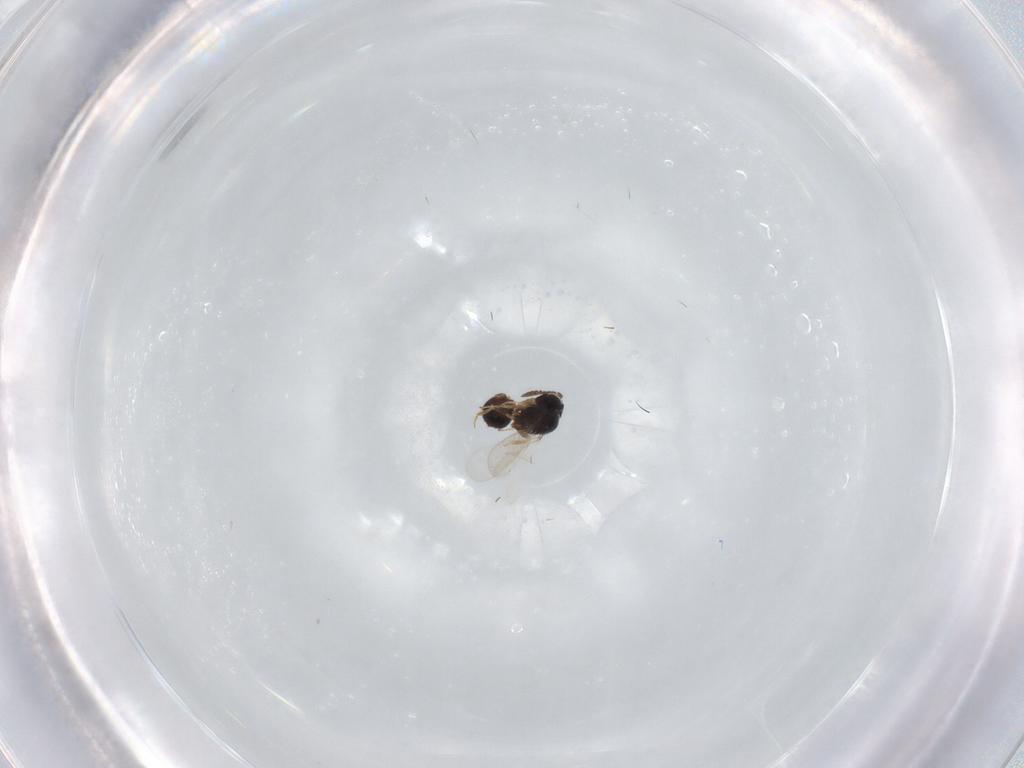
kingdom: Animalia
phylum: Arthropoda
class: Insecta
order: Hymenoptera
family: Scelionidae
